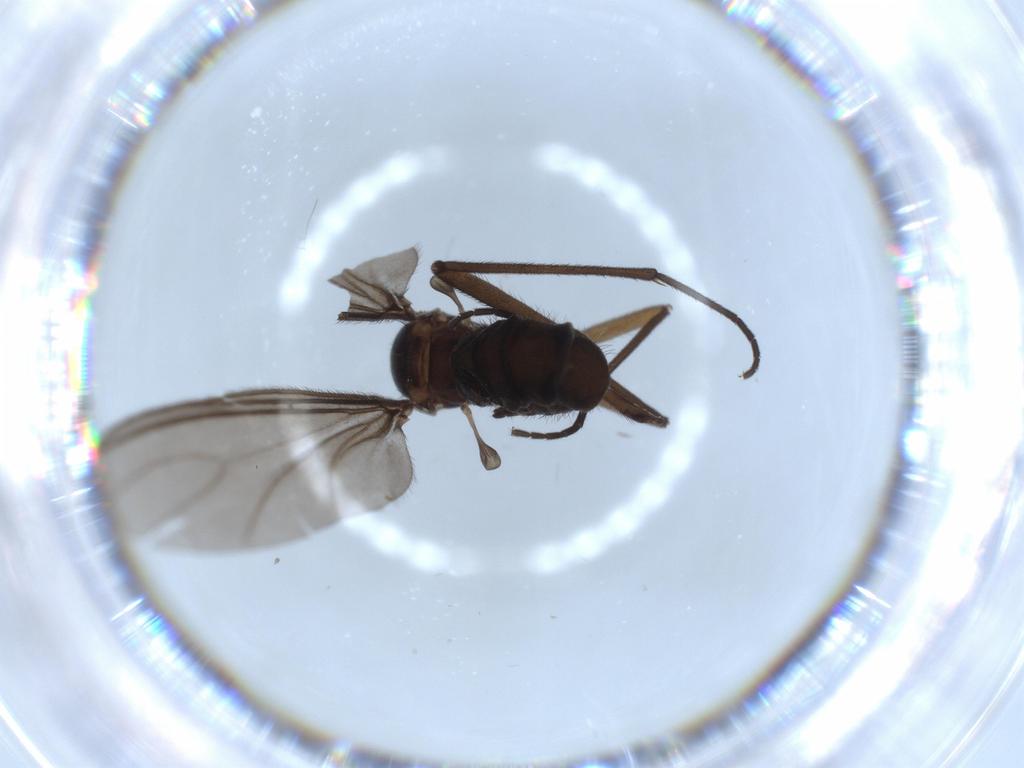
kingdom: Animalia
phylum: Arthropoda
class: Insecta
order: Diptera
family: Sciaridae
